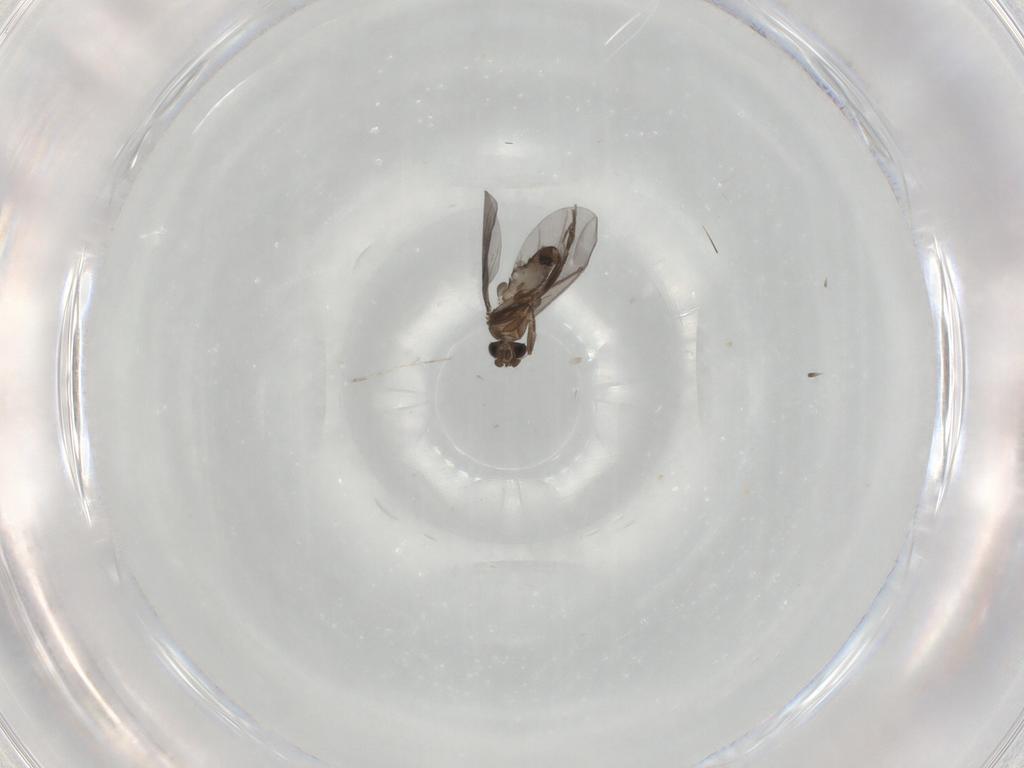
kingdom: Animalia
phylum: Arthropoda
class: Insecta
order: Diptera
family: Phoridae
